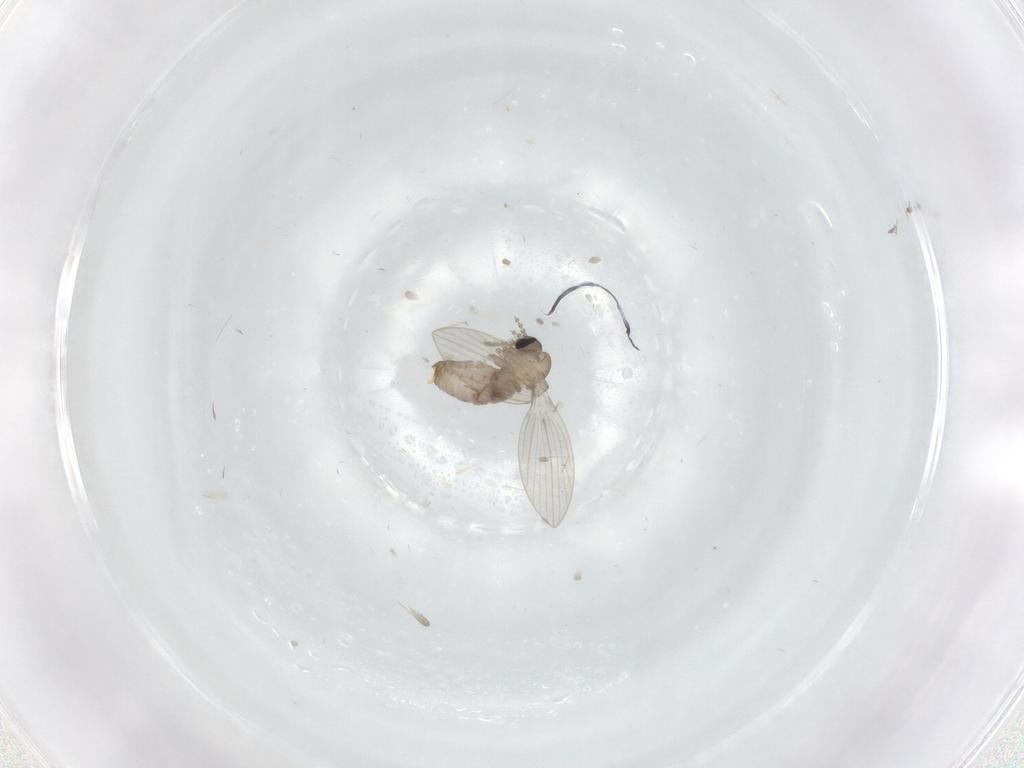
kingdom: Animalia
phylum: Arthropoda
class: Insecta
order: Diptera
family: Psychodidae
